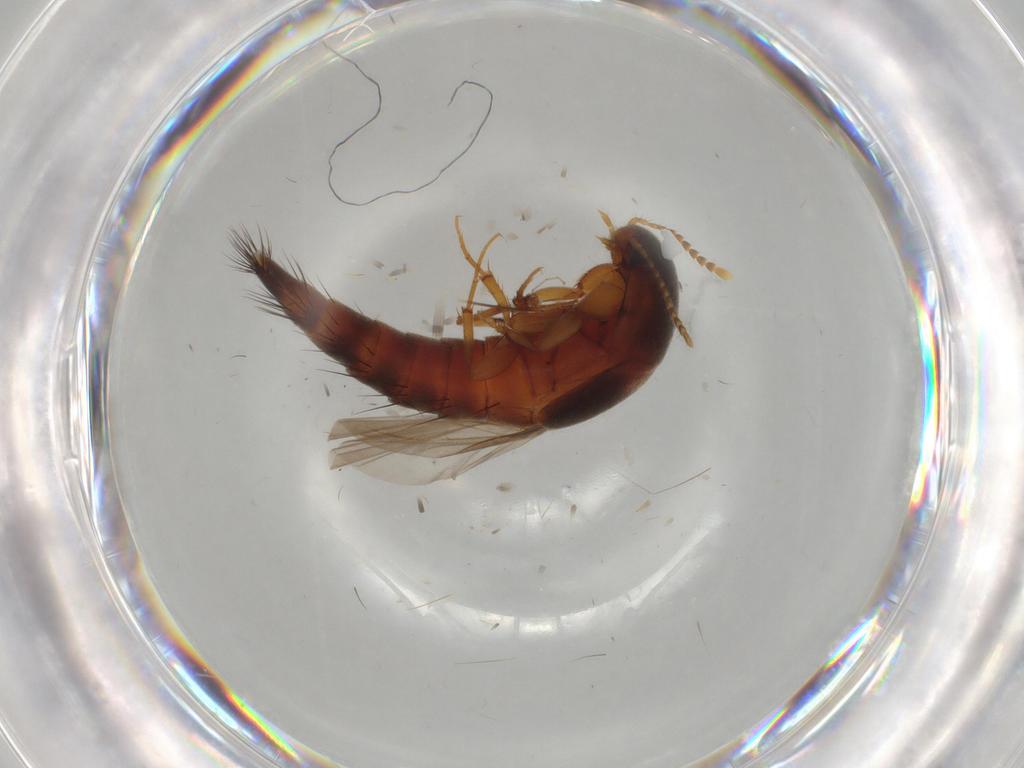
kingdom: Animalia
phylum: Arthropoda
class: Insecta
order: Coleoptera
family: Staphylinidae
